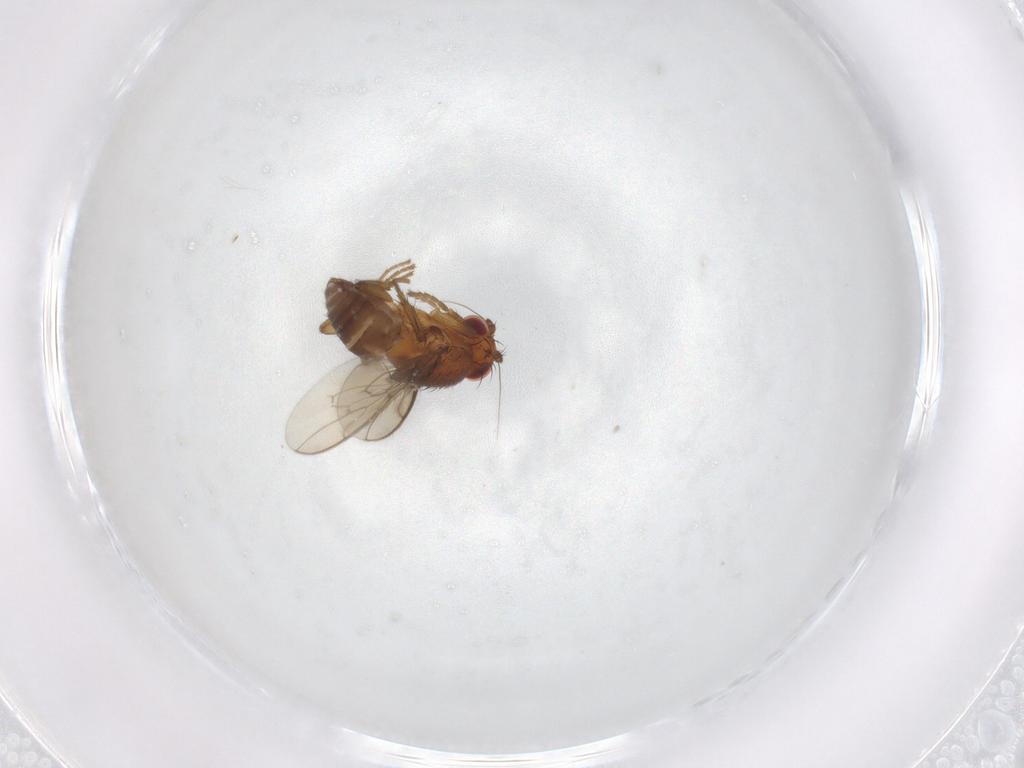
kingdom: Animalia
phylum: Arthropoda
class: Insecta
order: Diptera
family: Sphaeroceridae
